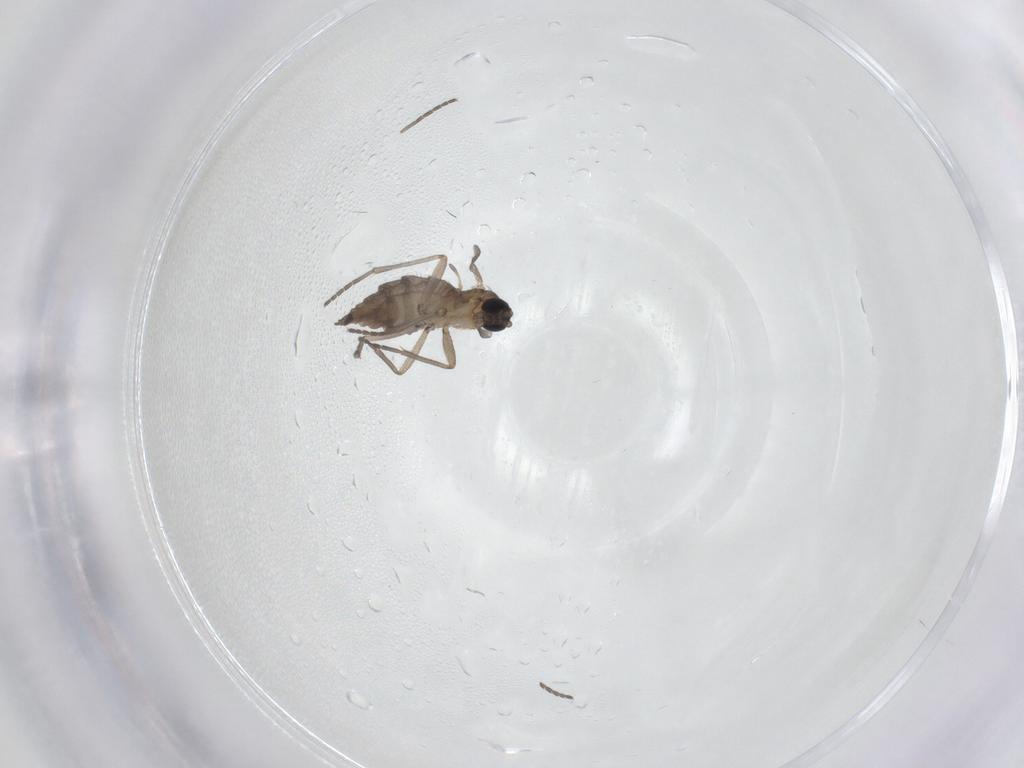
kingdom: Animalia
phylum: Arthropoda
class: Insecta
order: Diptera
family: Sciaridae
